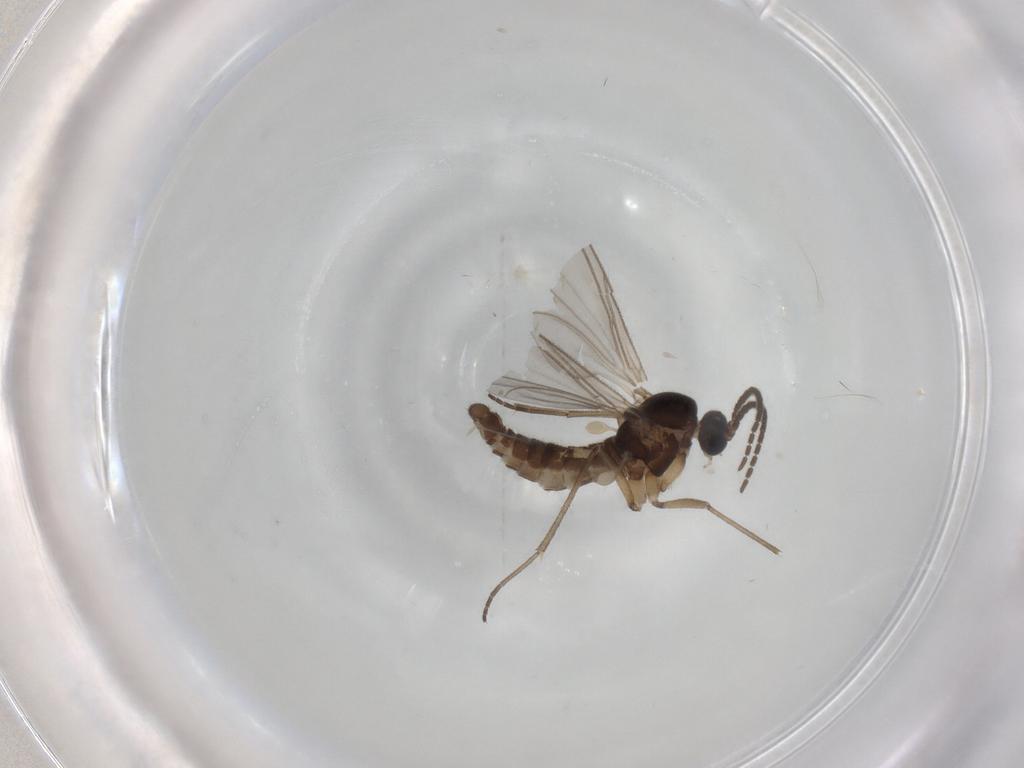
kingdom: Animalia
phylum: Arthropoda
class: Insecta
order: Diptera
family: Sciaridae
